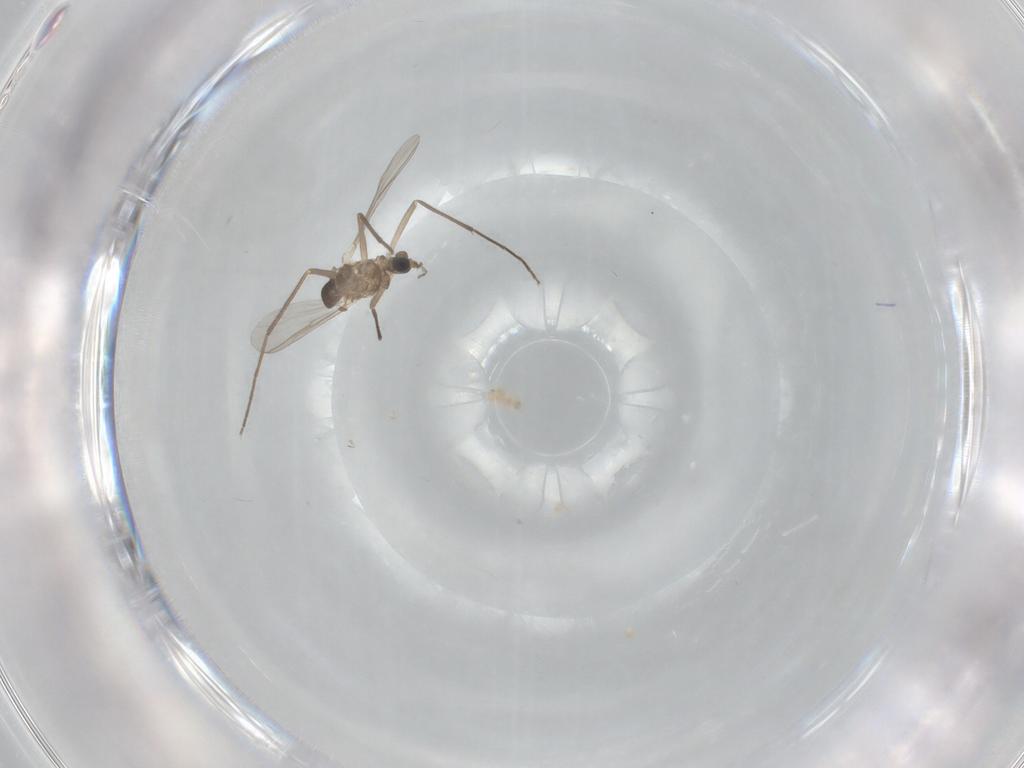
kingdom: Animalia
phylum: Arthropoda
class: Insecta
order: Diptera
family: Chironomidae
